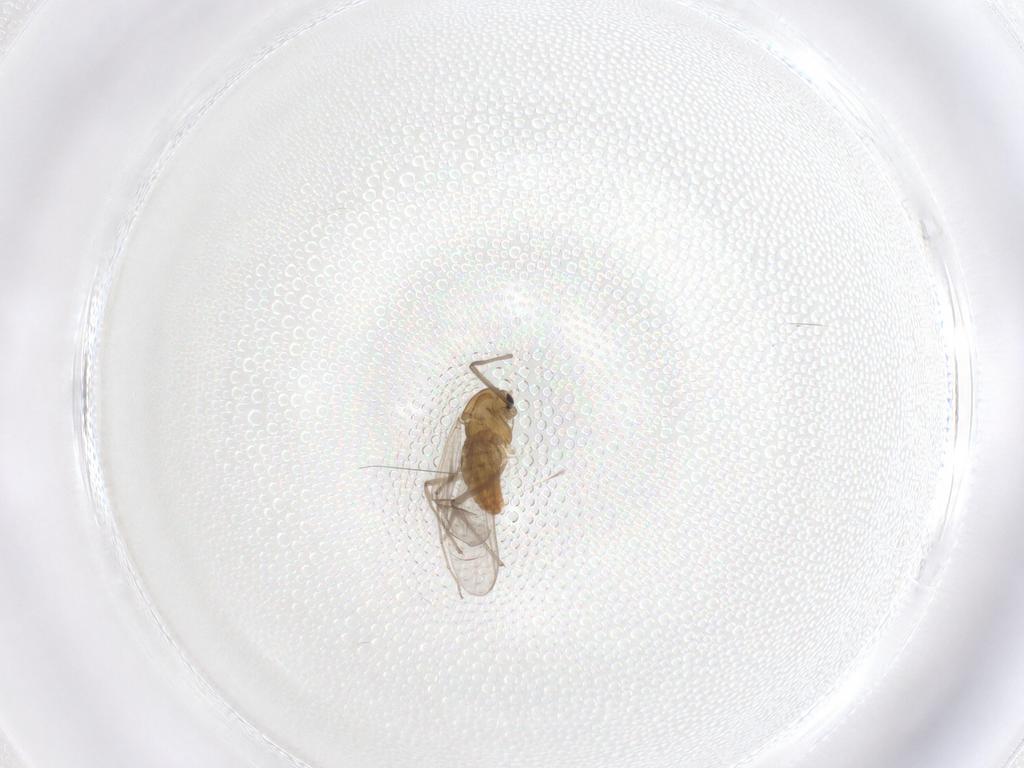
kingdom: Animalia
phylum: Arthropoda
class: Insecta
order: Diptera
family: Chironomidae
